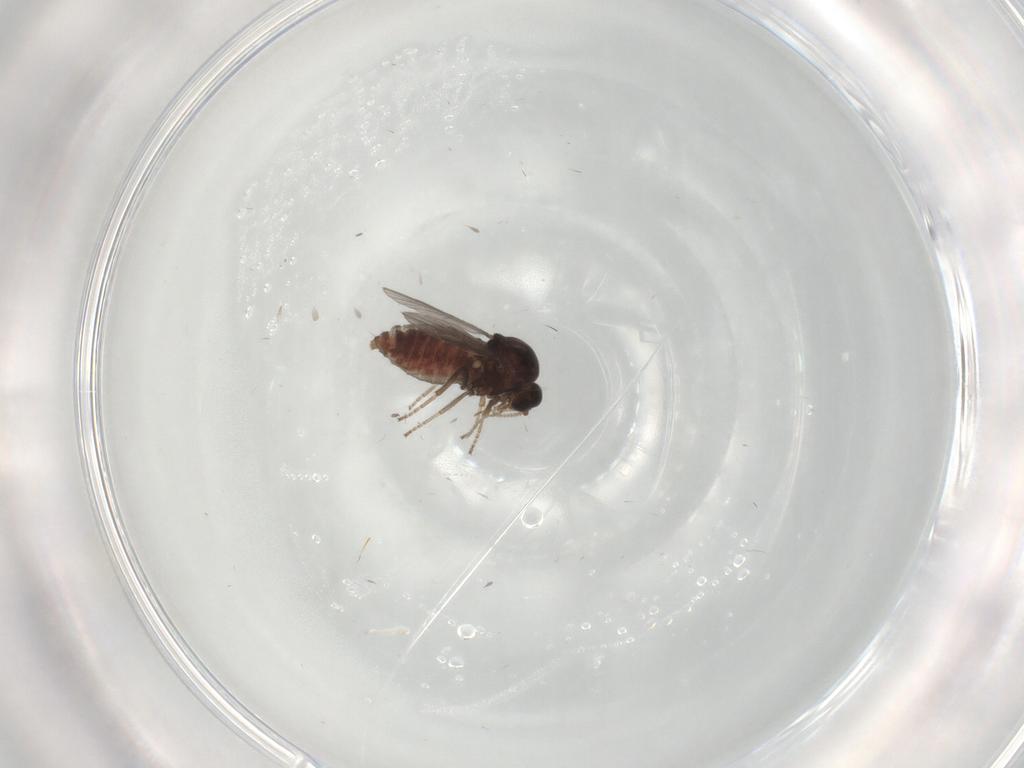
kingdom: Animalia
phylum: Arthropoda
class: Insecta
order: Diptera
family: Ceratopogonidae
